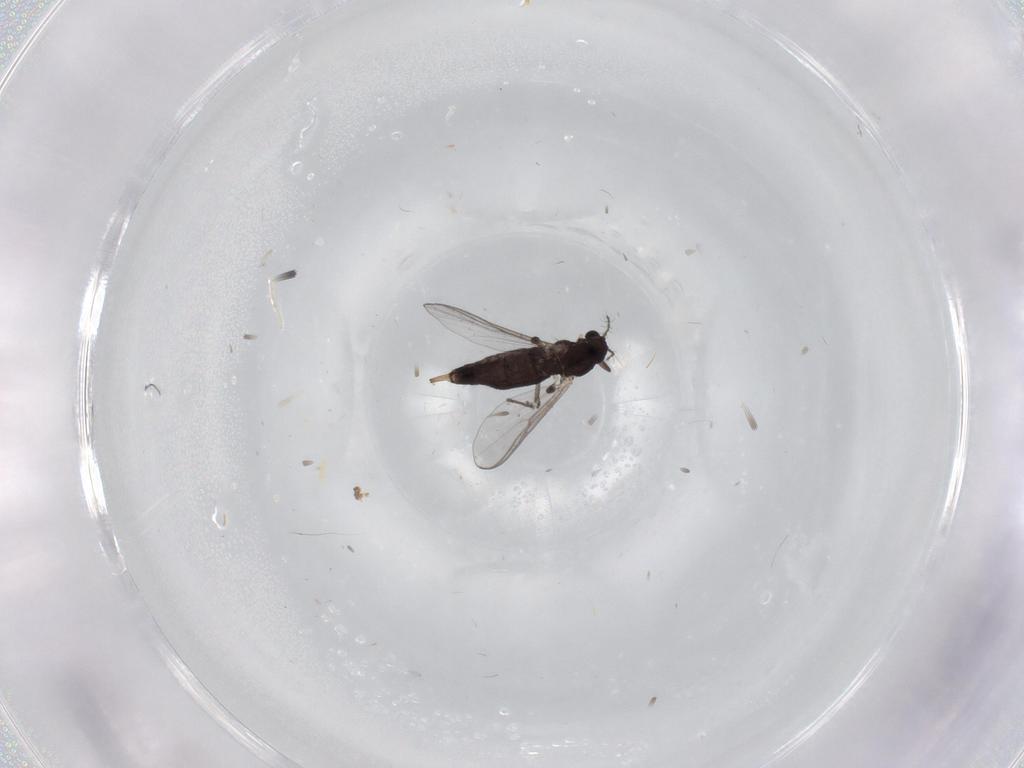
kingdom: Animalia
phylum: Arthropoda
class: Insecta
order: Diptera
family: Chironomidae
